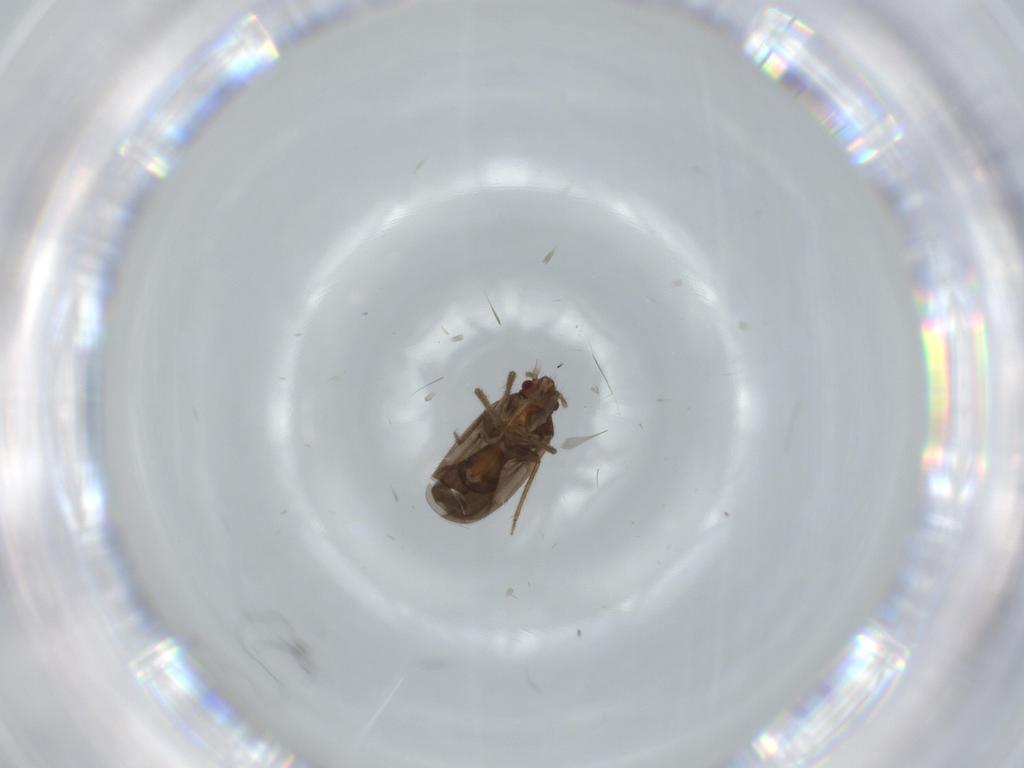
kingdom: Animalia
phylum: Arthropoda
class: Insecta
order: Hemiptera
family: Ceratocombidae
